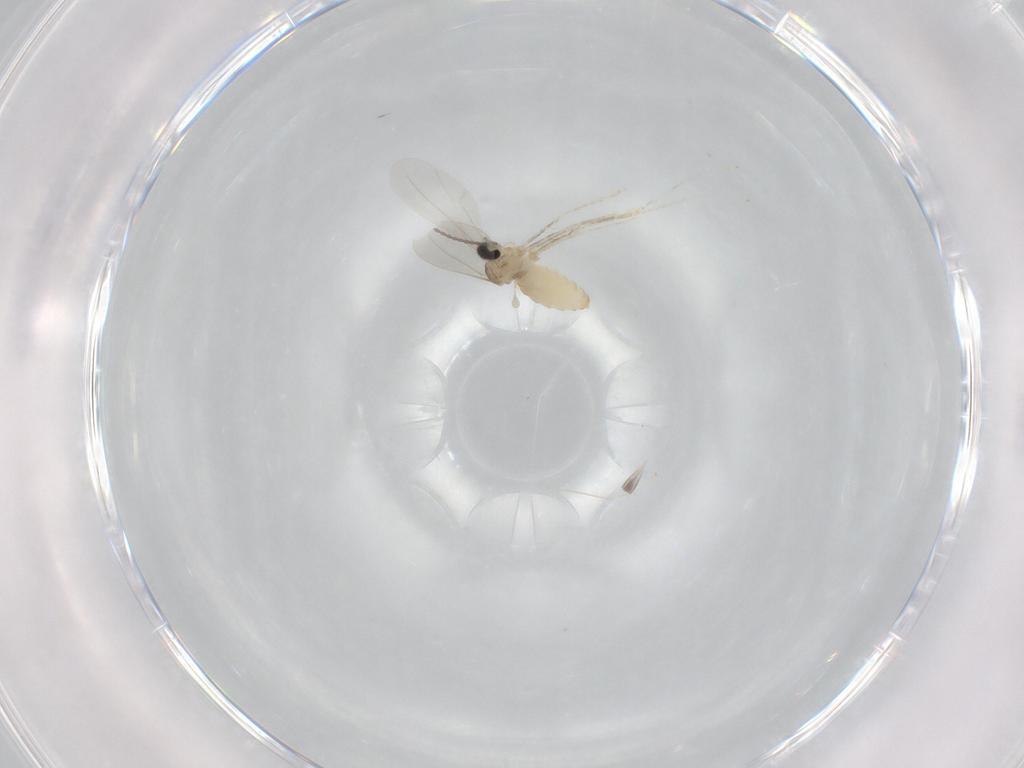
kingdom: Animalia
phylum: Arthropoda
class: Insecta
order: Diptera
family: Cecidomyiidae
